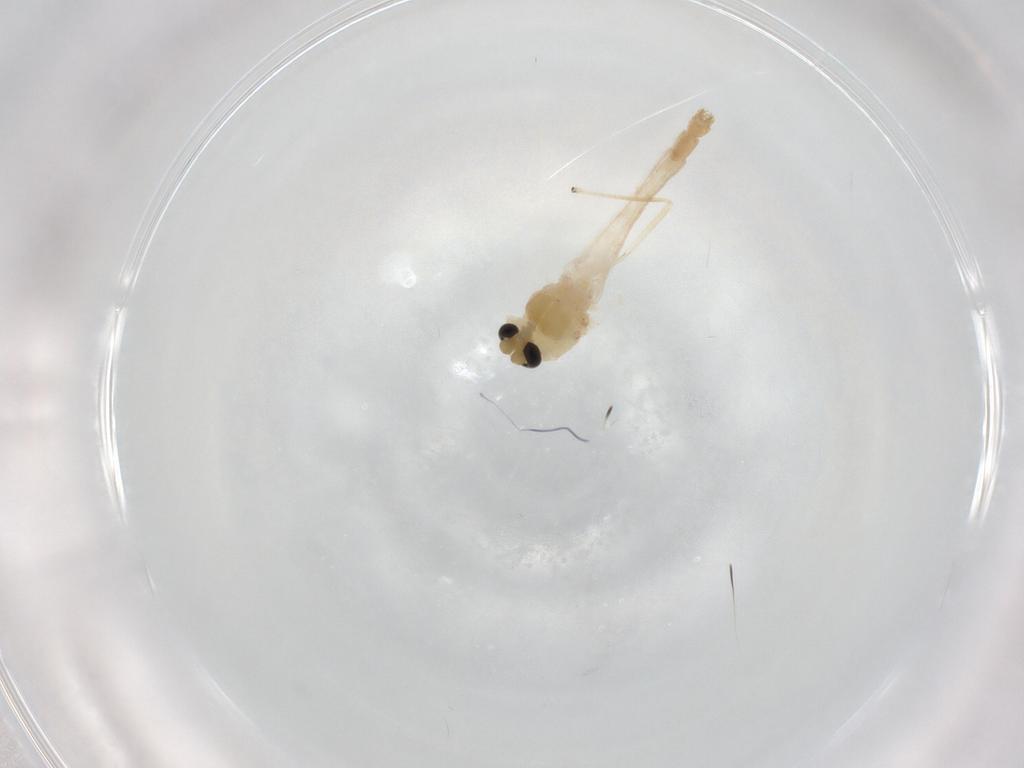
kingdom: Animalia
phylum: Arthropoda
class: Insecta
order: Diptera
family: Chironomidae
